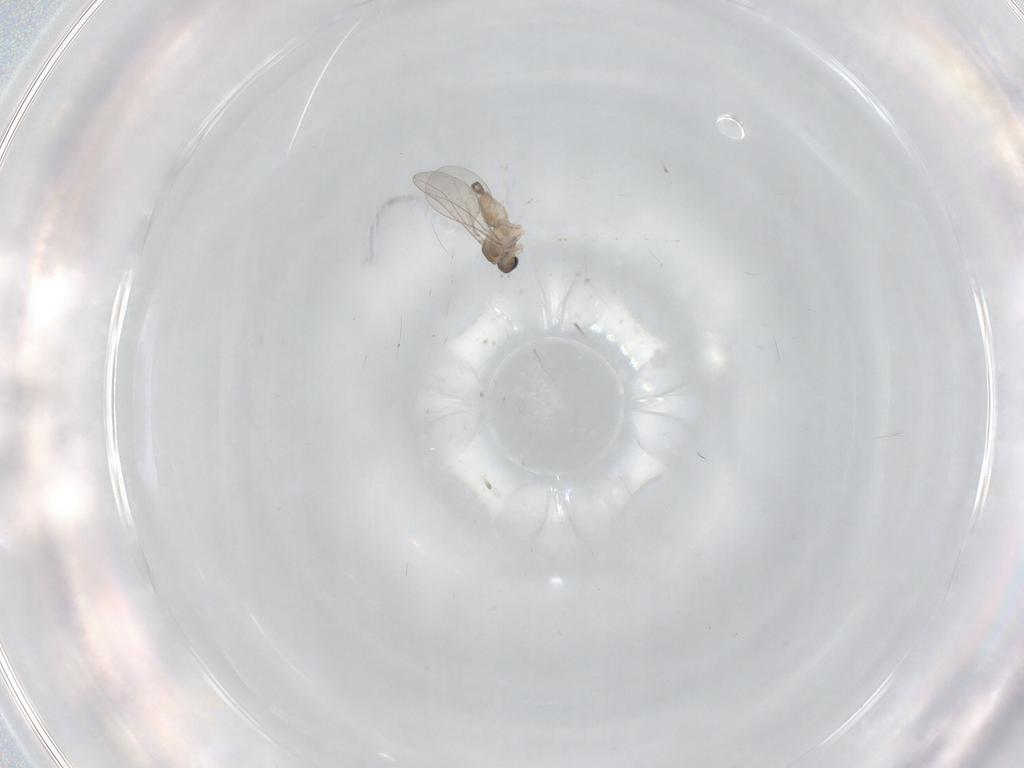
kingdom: Animalia
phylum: Arthropoda
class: Insecta
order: Diptera
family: Cecidomyiidae
